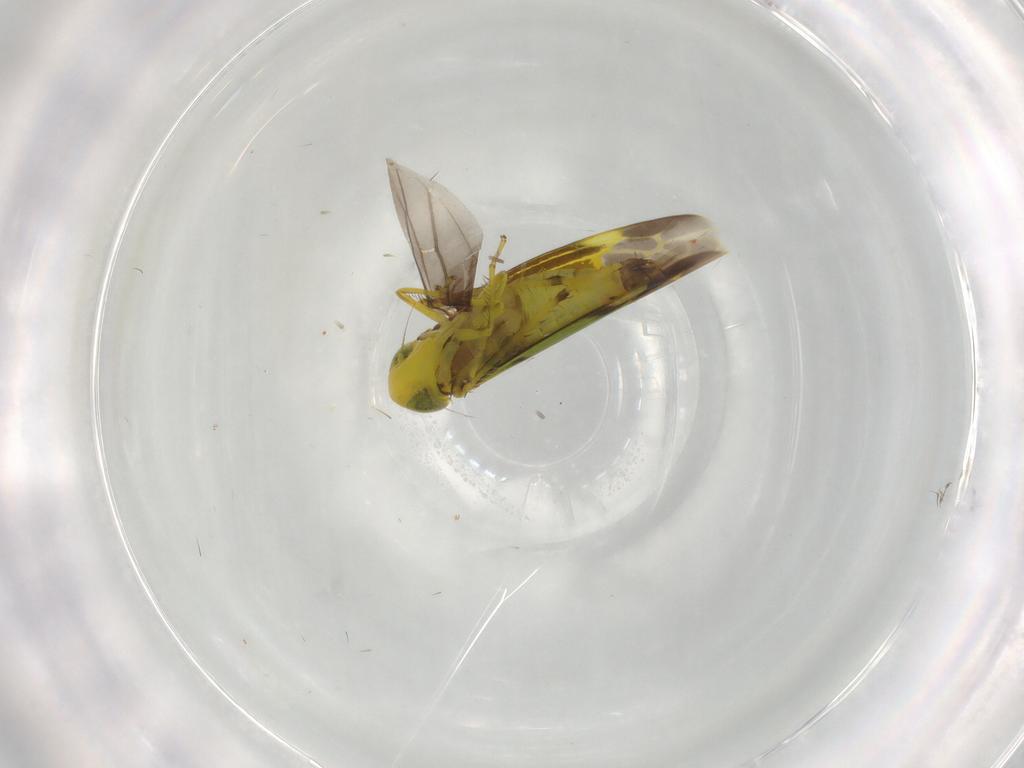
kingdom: Animalia
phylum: Arthropoda
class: Insecta
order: Hemiptera
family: Cicadellidae
